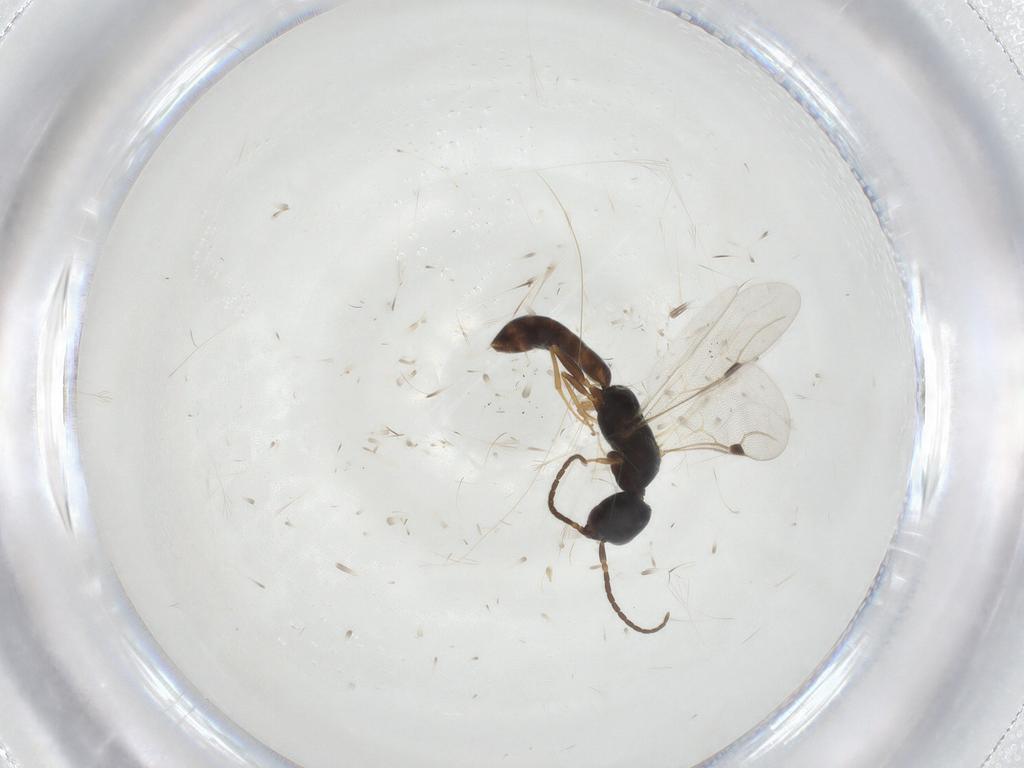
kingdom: Animalia
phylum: Arthropoda
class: Insecta
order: Hymenoptera
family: Bethylidae
